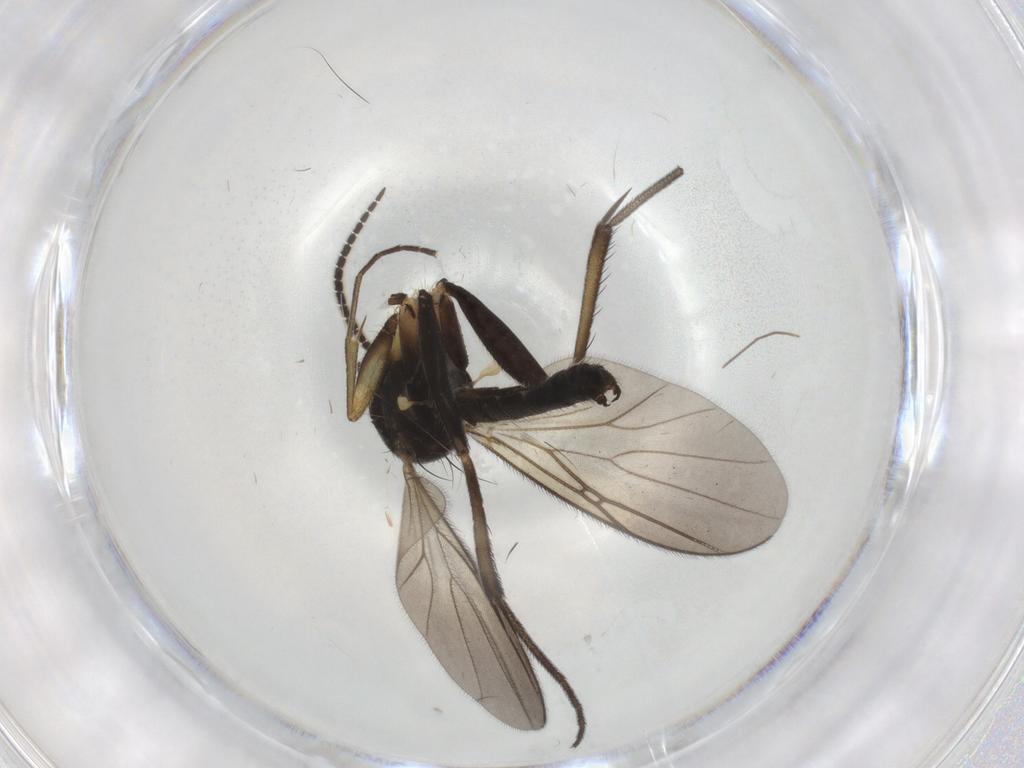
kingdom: Animalia
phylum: Arthropoda
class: Insecta
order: Diptera
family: Mycetophilidae
